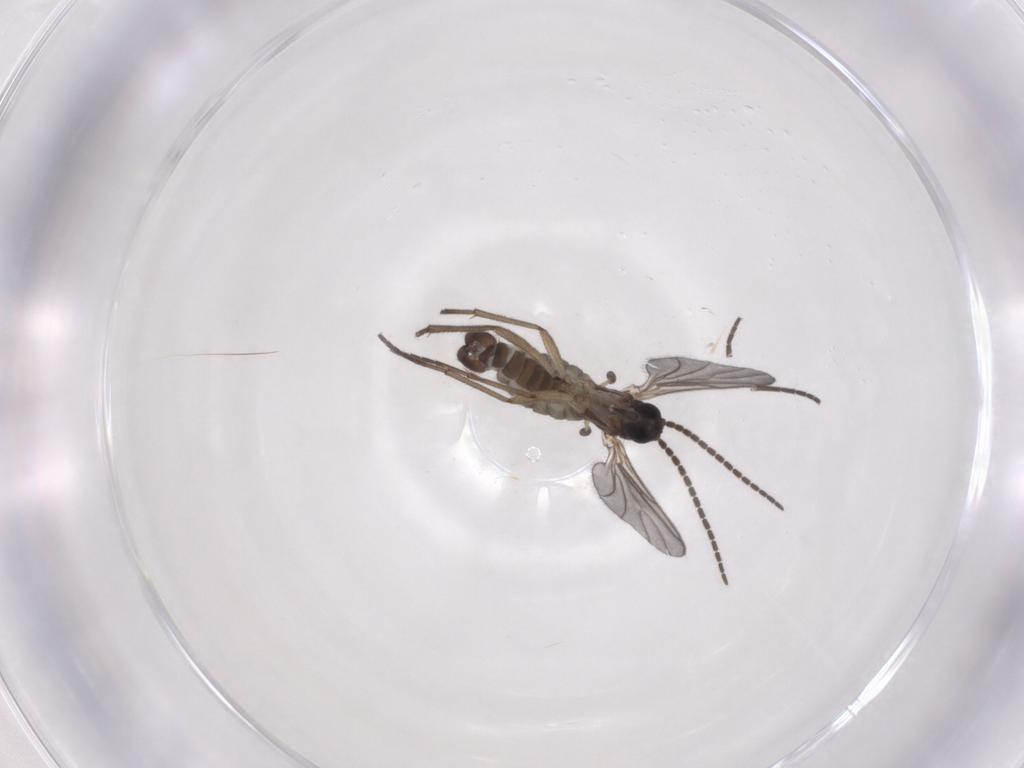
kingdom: Animalia
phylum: Arthropoda
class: Insecta
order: Diptera
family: Sciaridae
